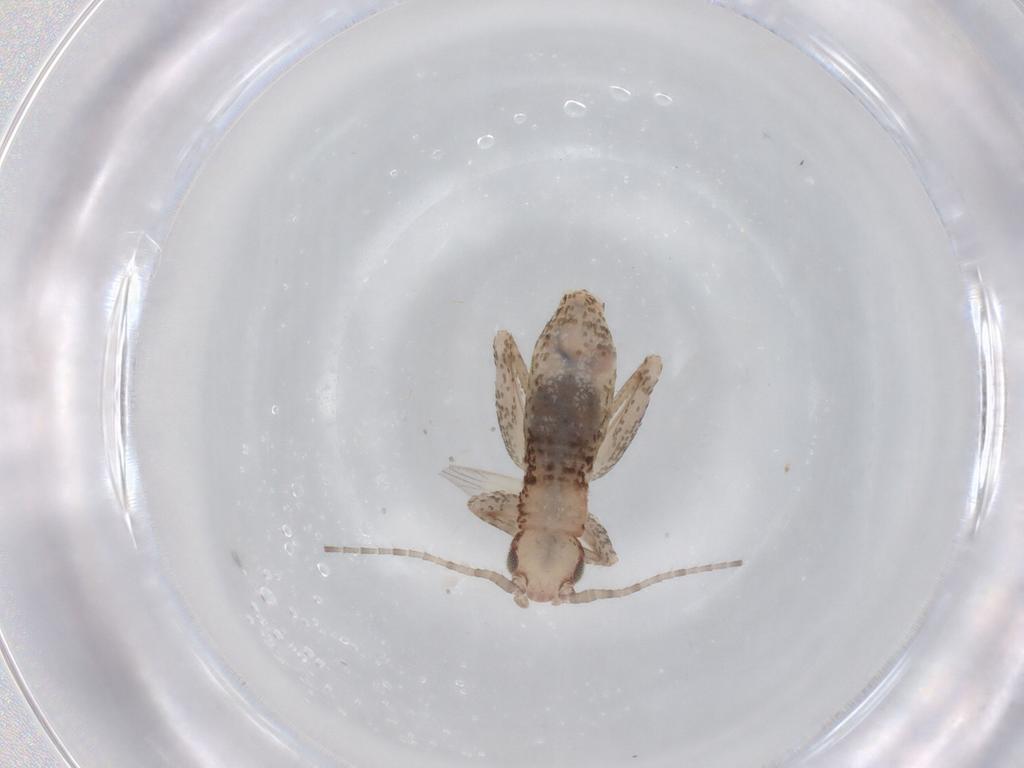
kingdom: Animalia
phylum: Arthropoda
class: Insecta
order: Orthoptera
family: Mogoplistidae
